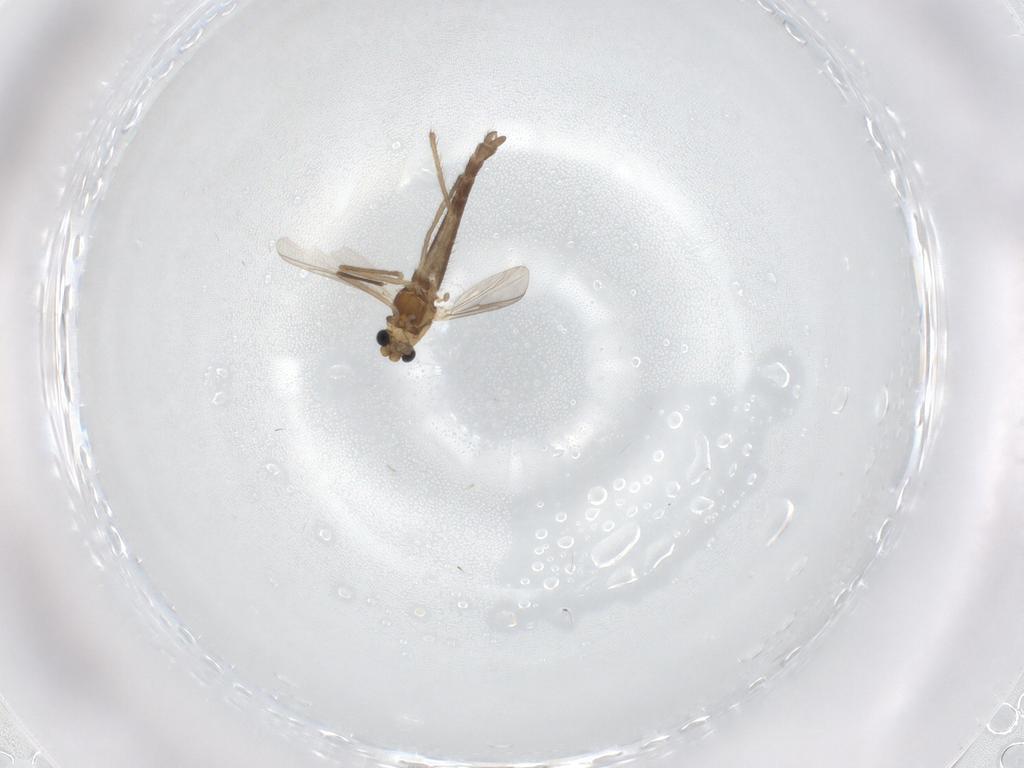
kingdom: Animalia
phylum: Arthropoda
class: Insecta
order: Diptera
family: Chironomidae
